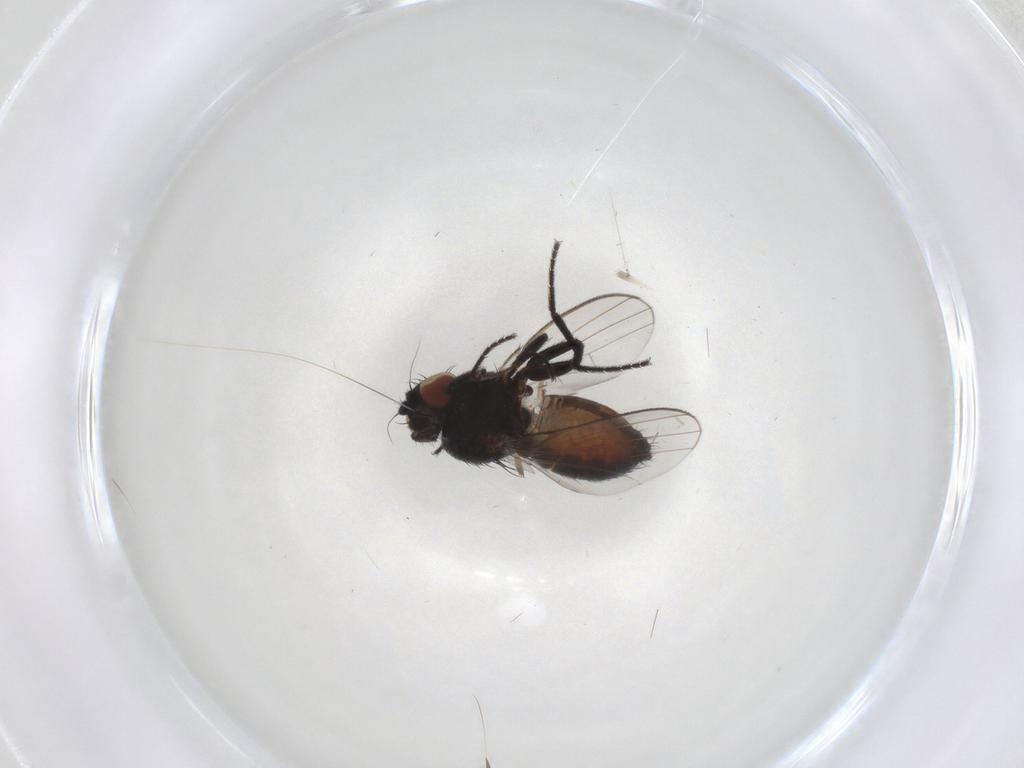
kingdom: Animalia
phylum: Arthropoda
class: Insecta
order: Diptera
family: Milichiidae
